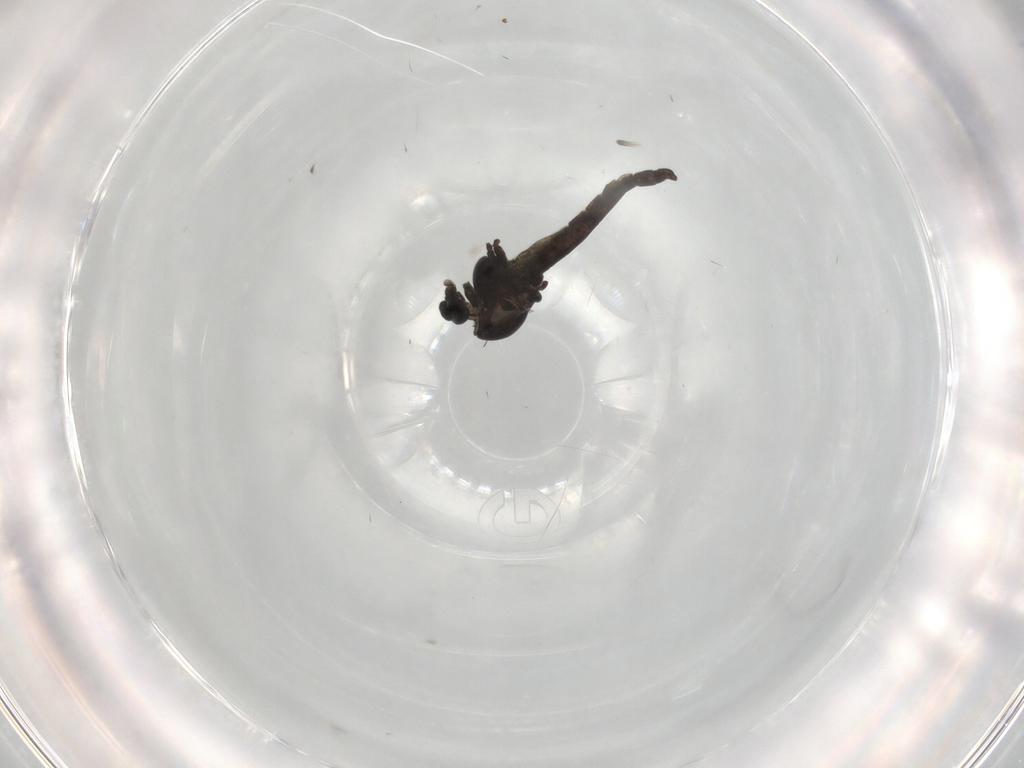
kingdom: Animalia
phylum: Arthropoda
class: Insecta
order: Diptera
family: Chironomidae
